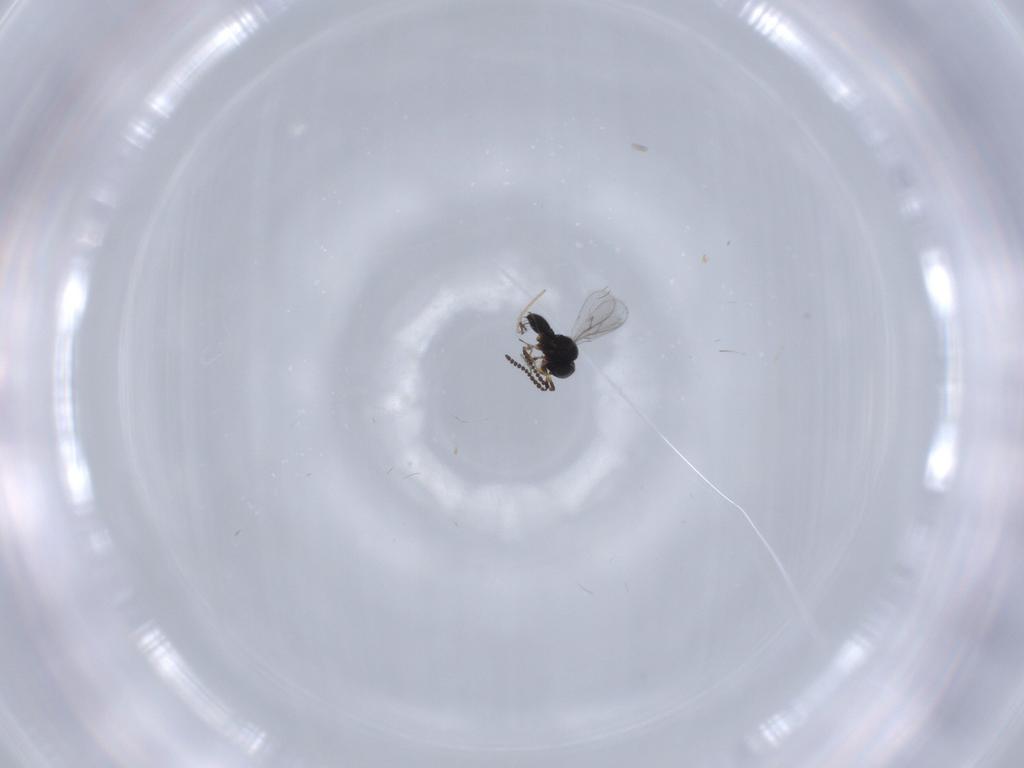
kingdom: Animalia
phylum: Arthropoda
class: Insecta
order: Hymenoptera
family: Scelionidae
